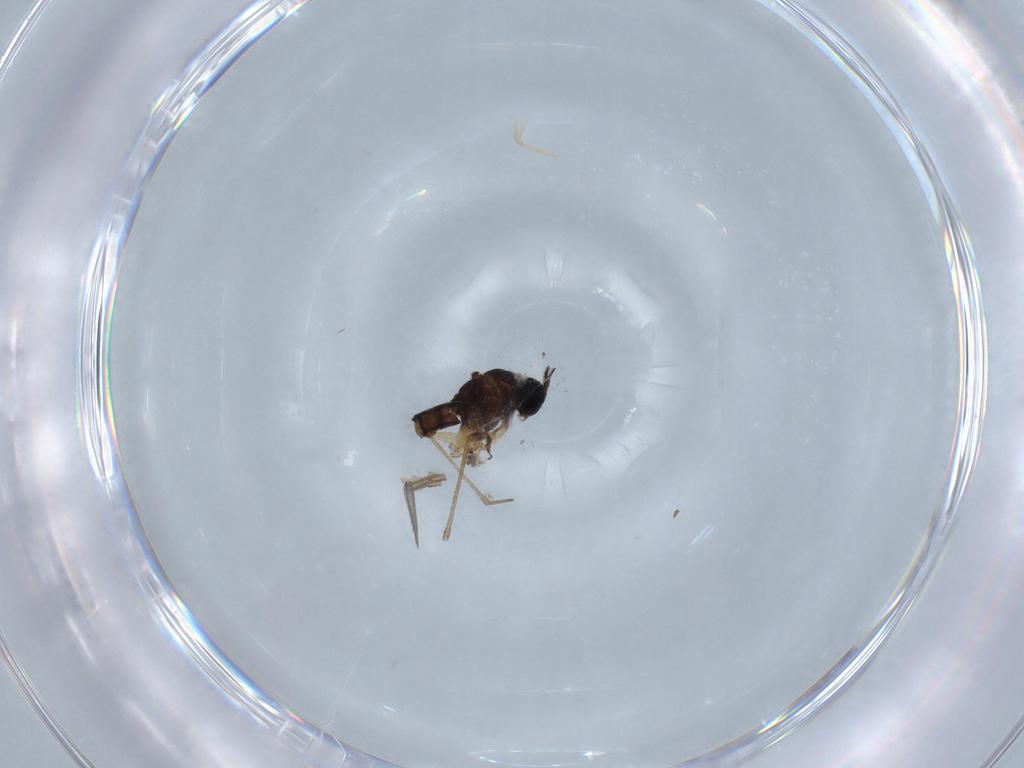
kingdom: Animalia
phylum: Arthropoda
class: Insecta
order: Diptera
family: Sciaridae
